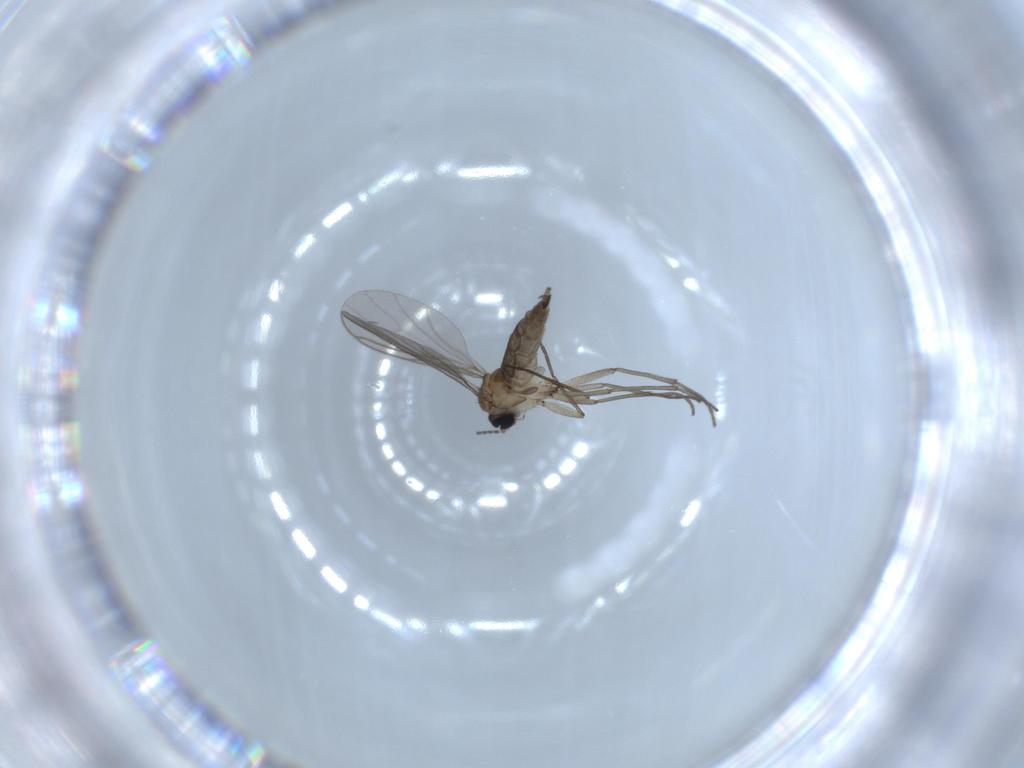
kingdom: Animalia
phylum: Arthropoda
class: Insecta
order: Diptera
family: Sciaridae
